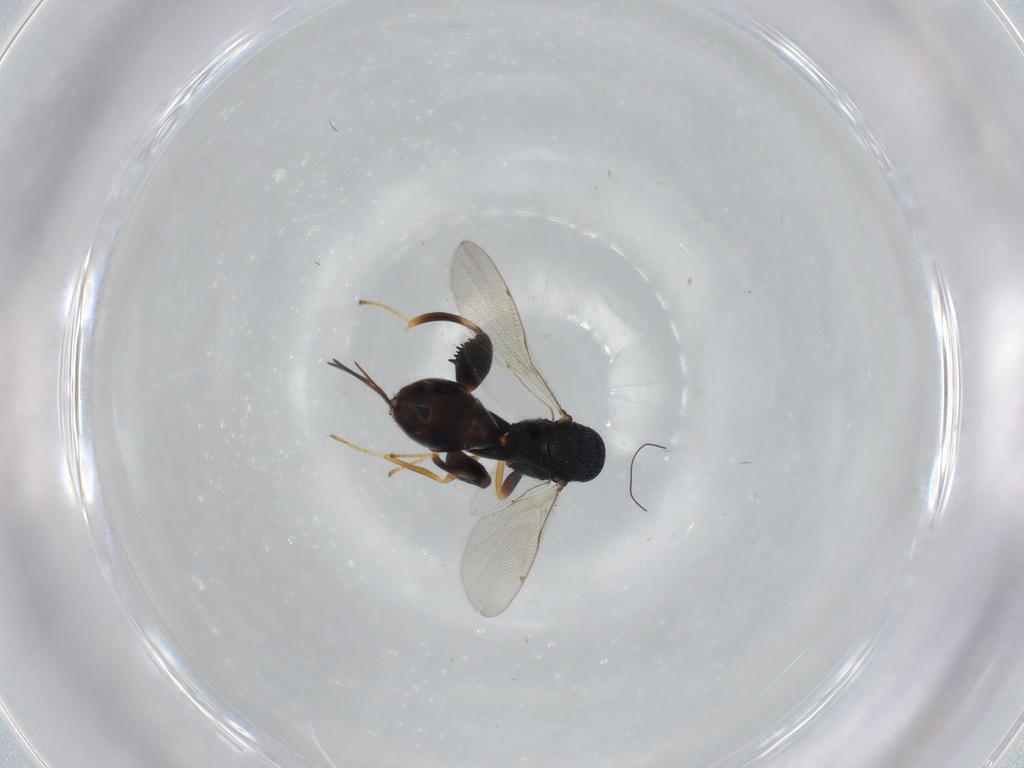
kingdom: Animalia
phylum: Arthropoda
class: Insecta
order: Hymenoptera
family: Torymidae
